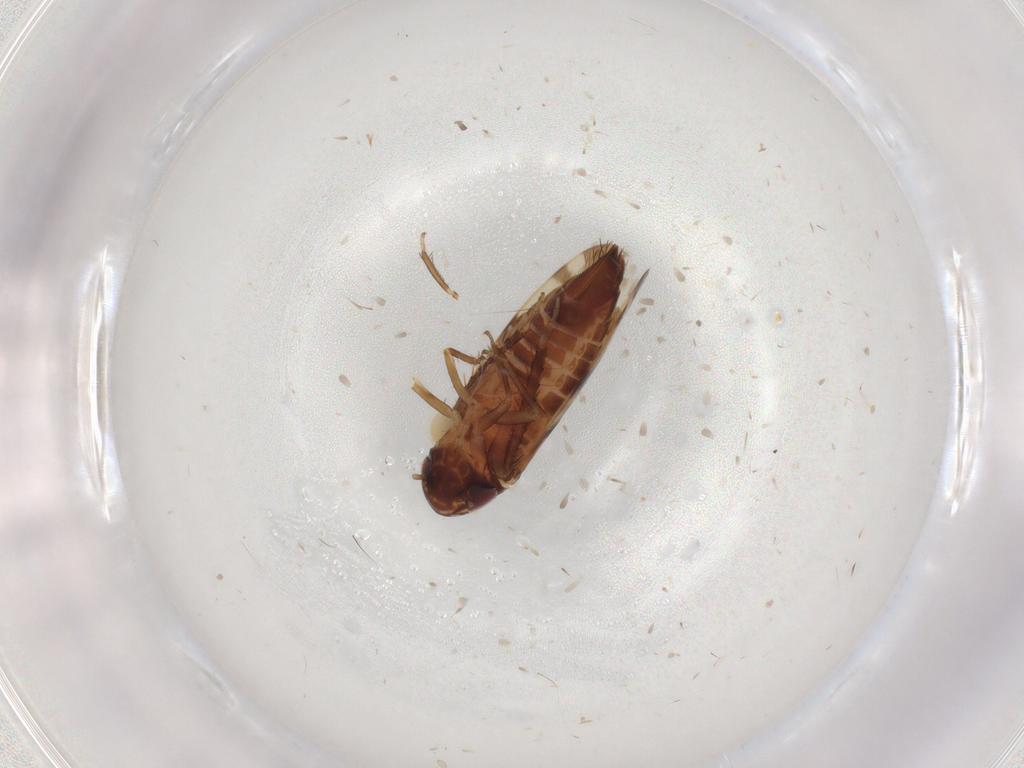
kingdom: Animalia
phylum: Arthropoda
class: Insecta
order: Hemiptera
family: Cicadellidae
